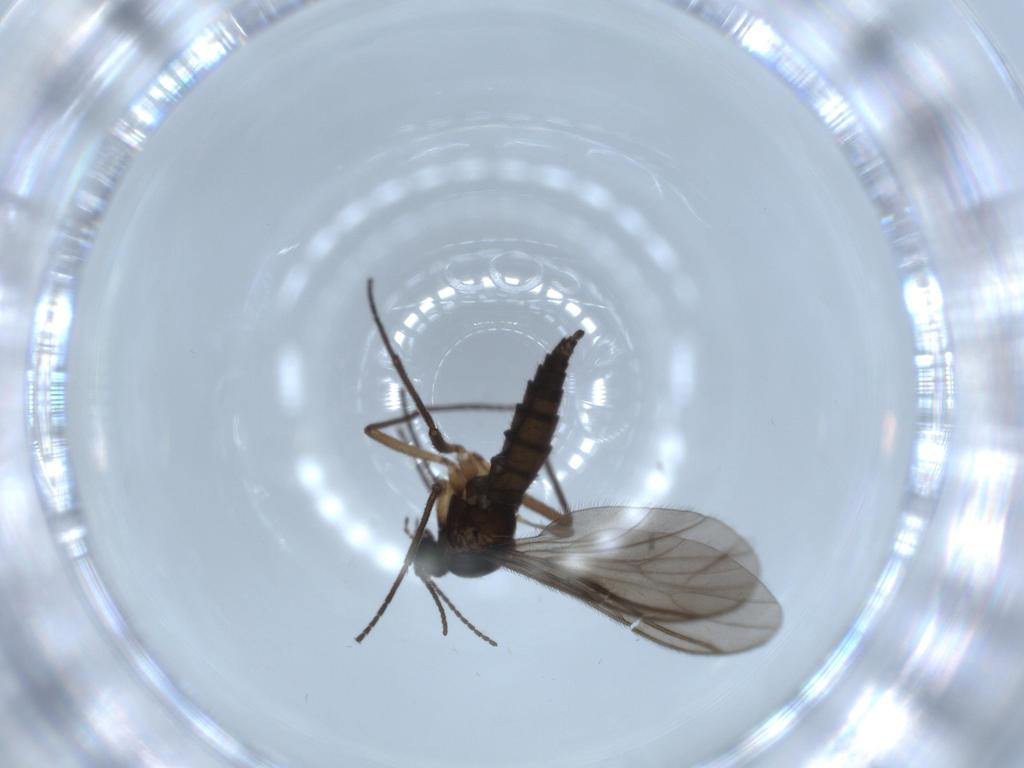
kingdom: Animalia
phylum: Arthropoda
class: Insecta
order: Diptera
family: Sciaridae
